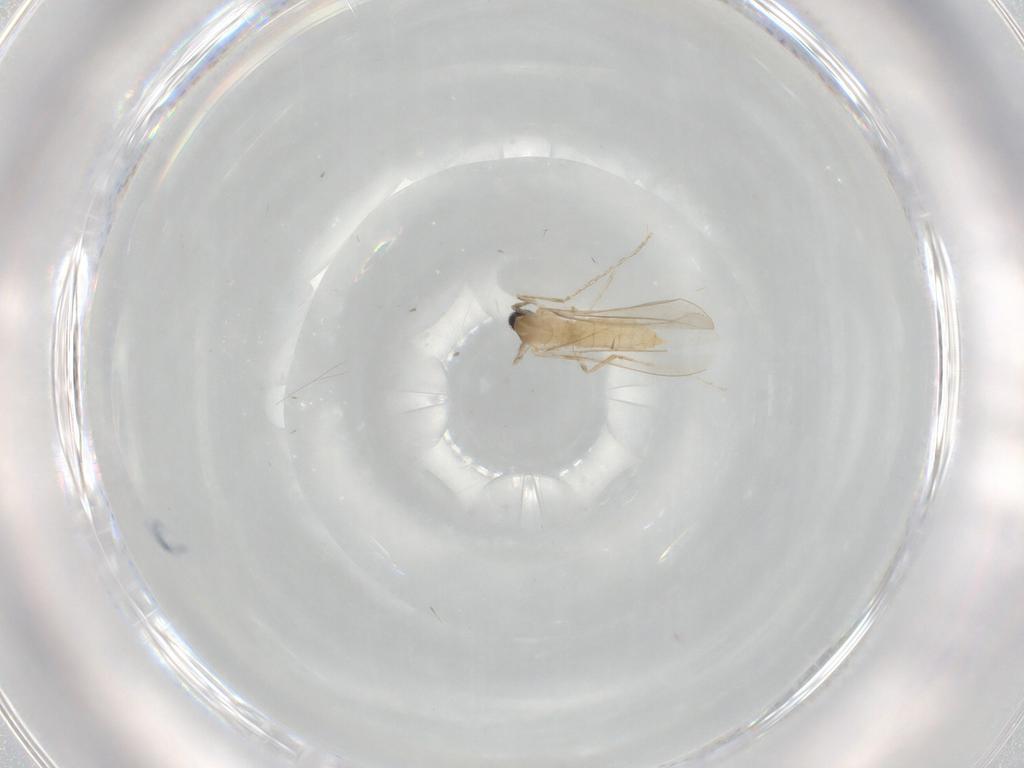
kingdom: Animalia
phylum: Arthropoda
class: Insecta
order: Diptera
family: Cecidomyiidae
